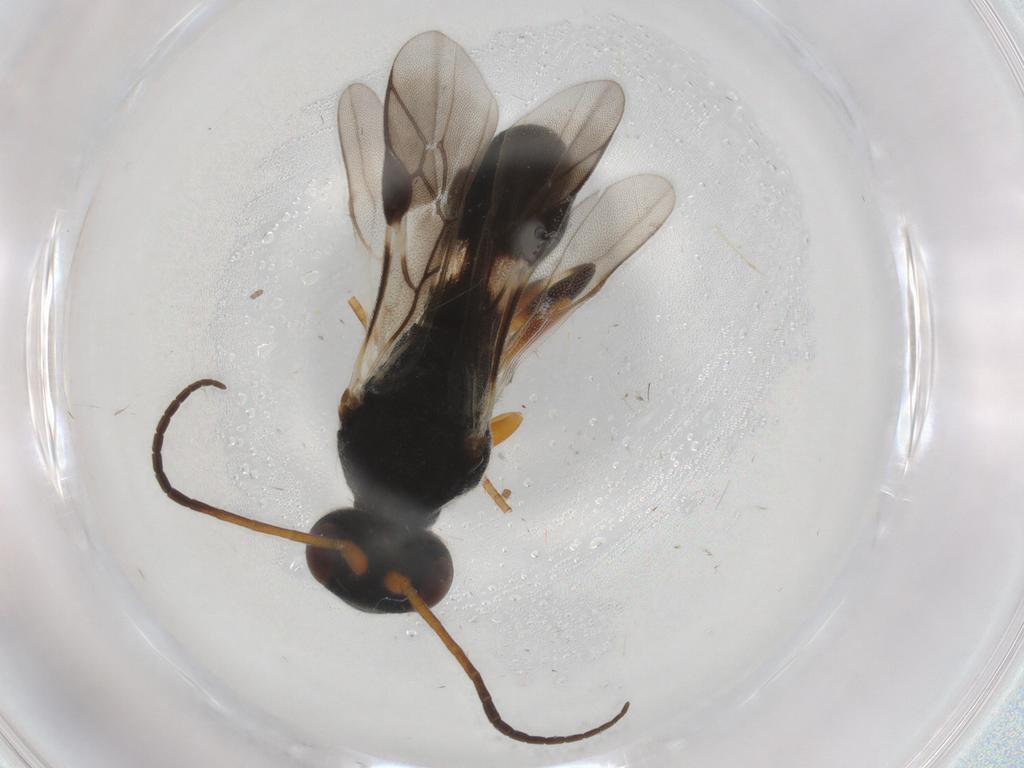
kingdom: Animalia
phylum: Arthropoda
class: Insecta
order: Hymenoptera
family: Braconidae
